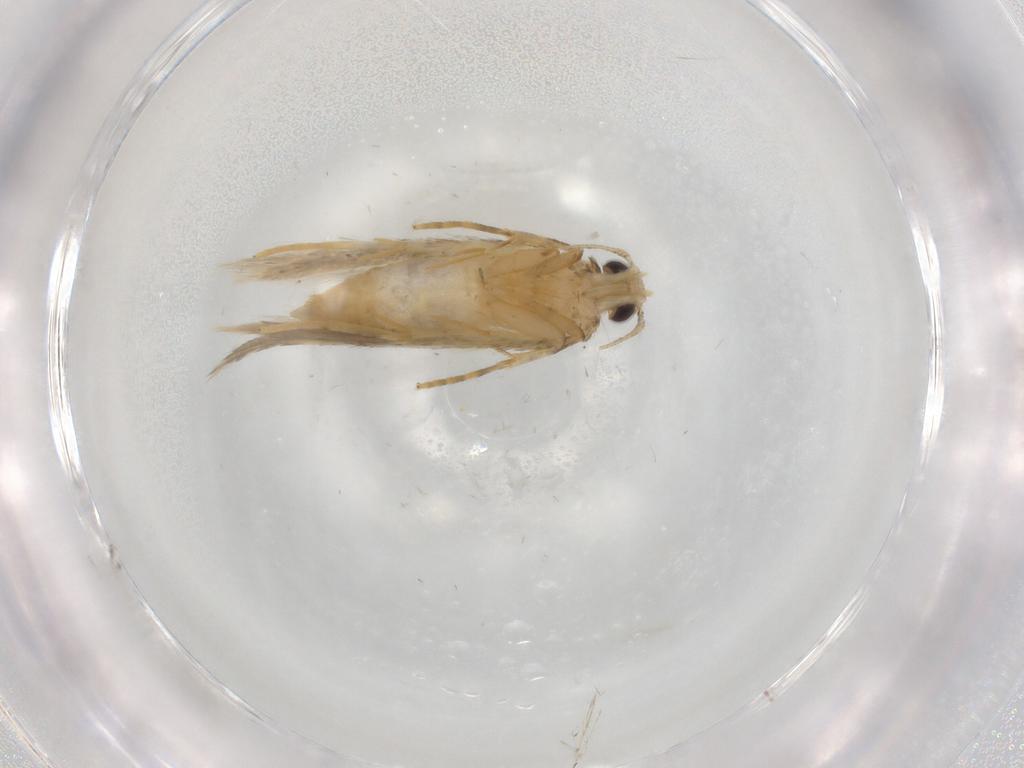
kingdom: Animalia
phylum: Arthropoda
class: Insecta
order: Lepidoptera
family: Autostichidae
